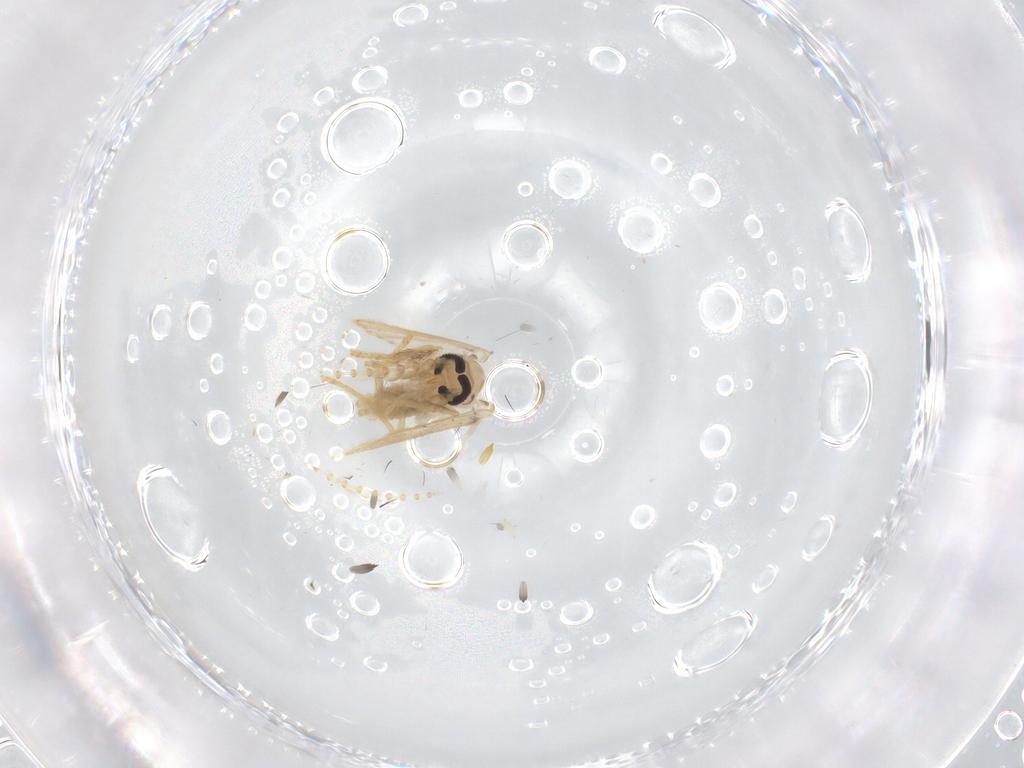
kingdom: Animalia
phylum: Arthropoda
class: Insecta
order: Diptera
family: Psychodidae
